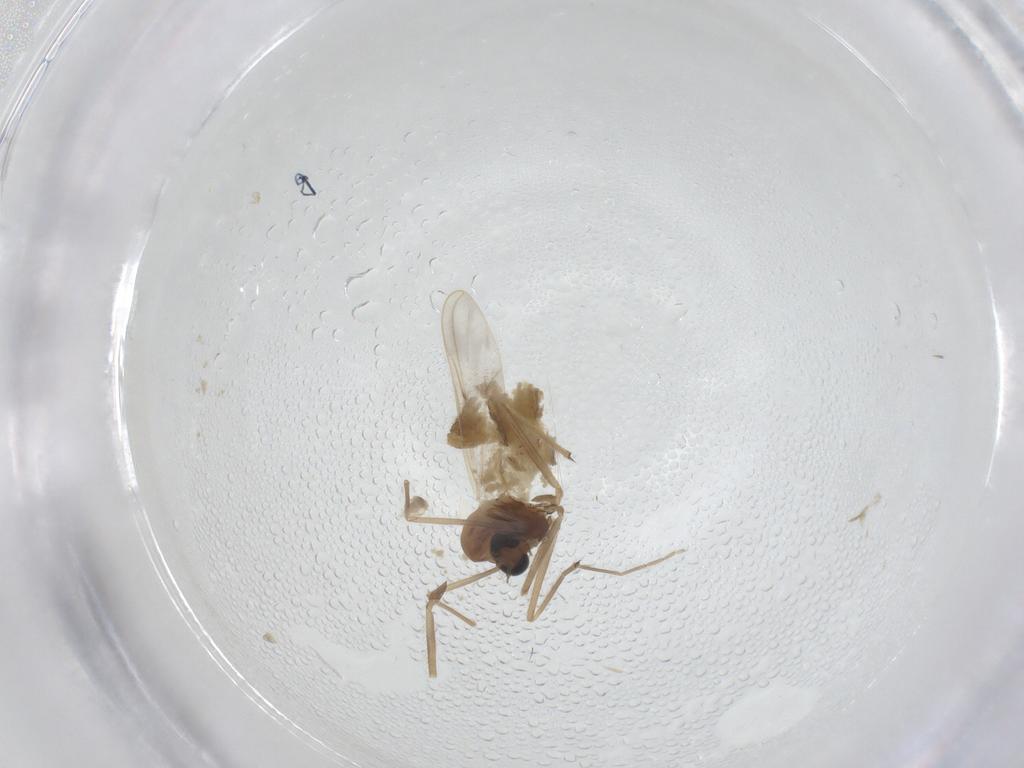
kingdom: Animalia
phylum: Arthropoda
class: Insecta
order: Diptera
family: Chironomidae
